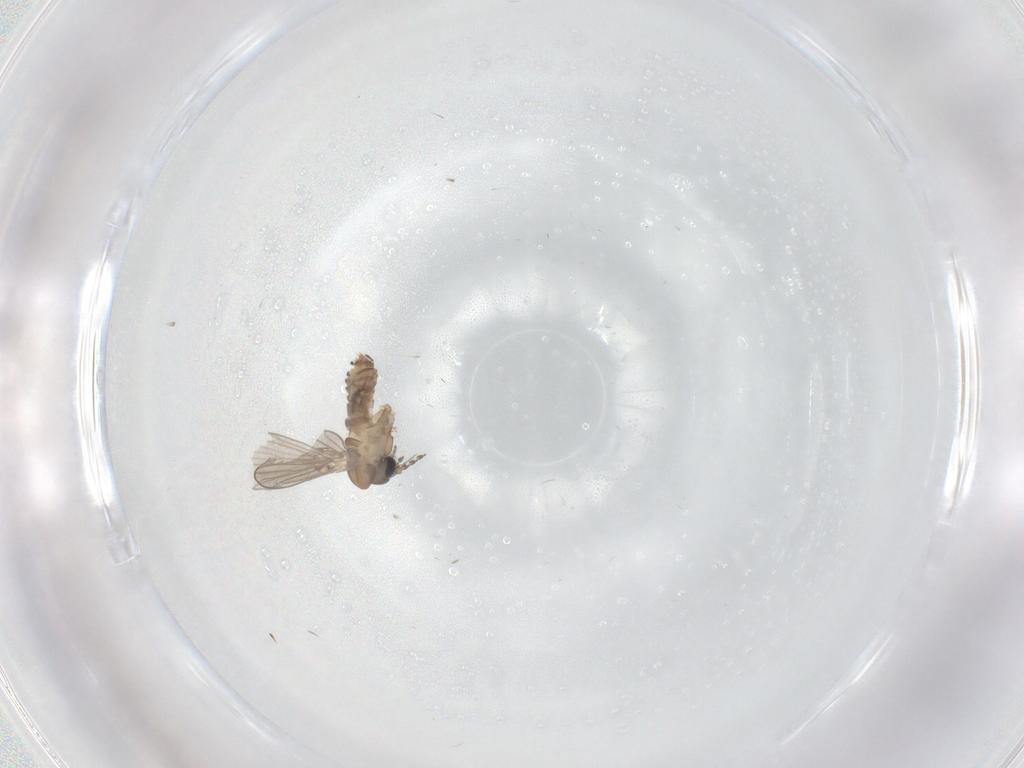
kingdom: Animalia
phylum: Arthropoda
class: Insecta
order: Diptera
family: Psychodidae
